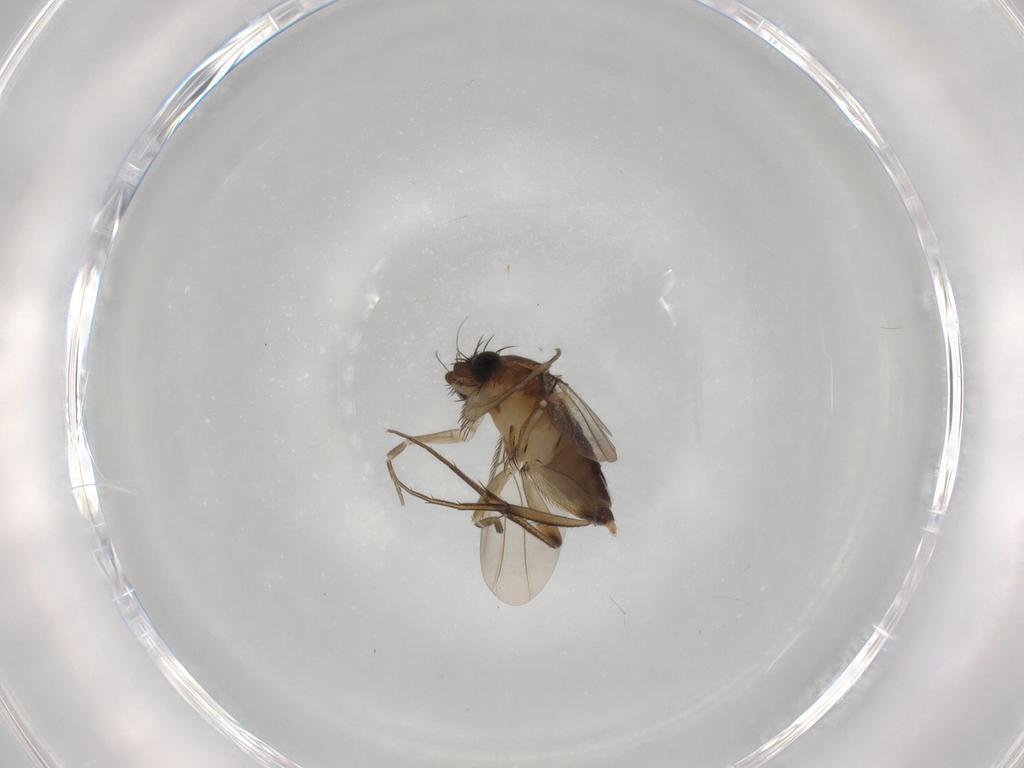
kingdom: Animalia
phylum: Arthropoda
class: Insecta
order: Diptera
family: Phoridae
